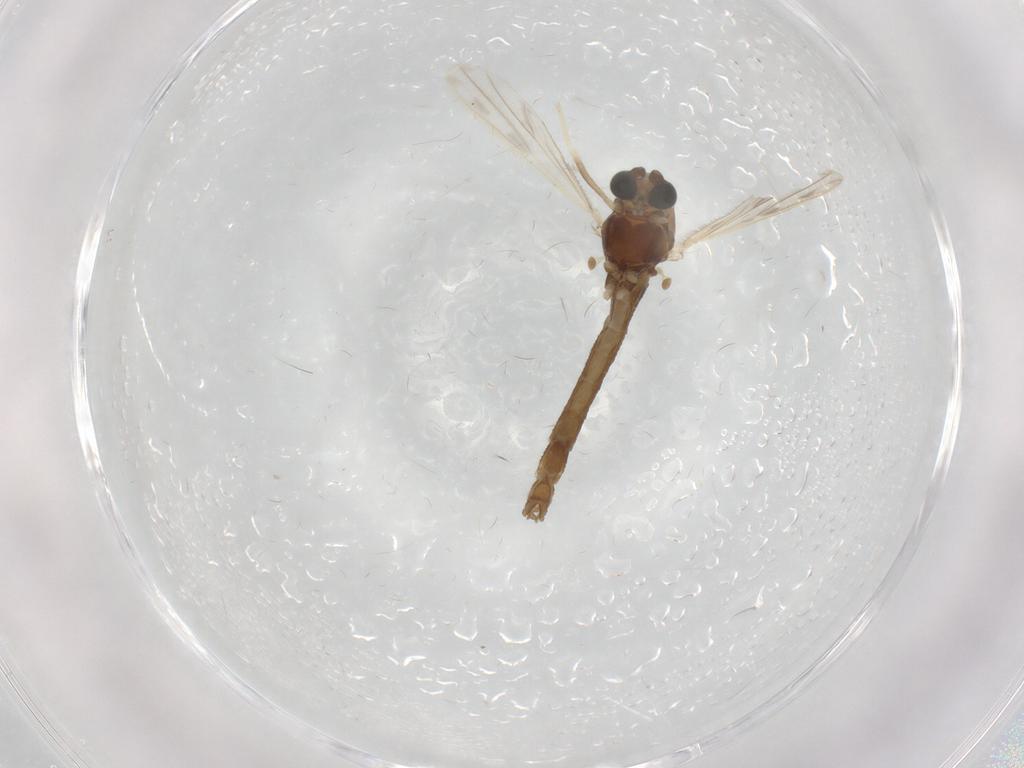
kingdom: Animalia
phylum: Arthropoda
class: Insecta
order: Diptera
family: Chironomidae
